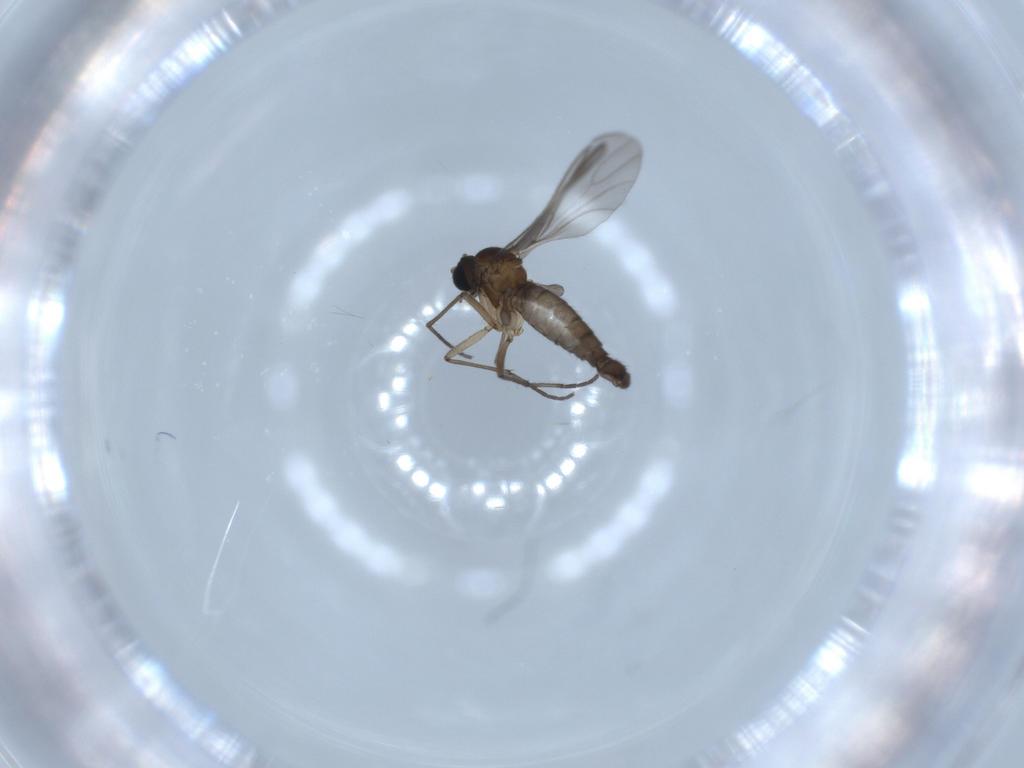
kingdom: Animalia
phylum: Arthropoda
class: Insecta
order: Diptera
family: Sciaridae
